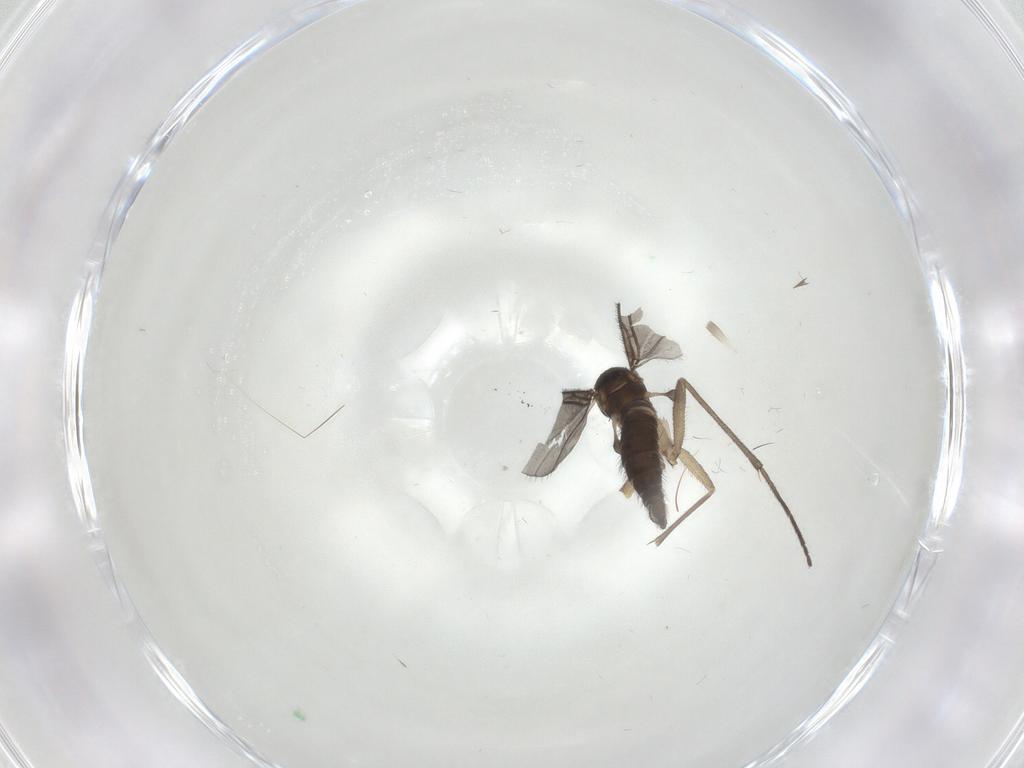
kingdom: Animalia
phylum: Arthropoda
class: Insecta
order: Diptera
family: Sciaridae
